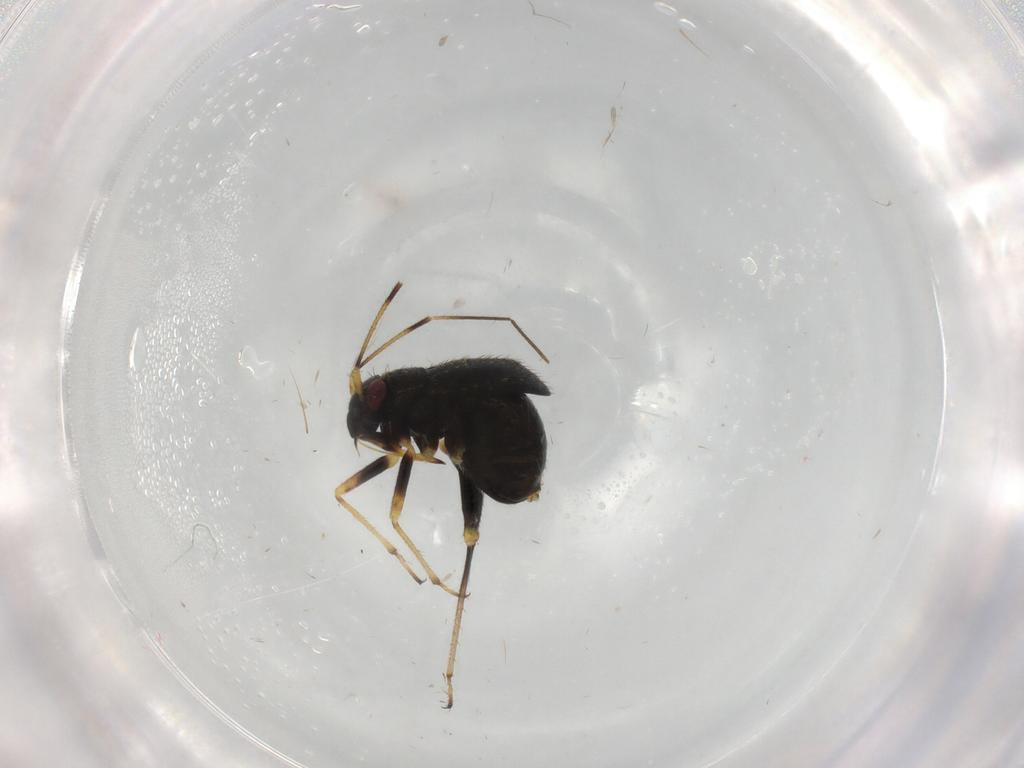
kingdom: Animalia
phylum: Arthropoda
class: Insecta
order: Hemiptera
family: Miridae
